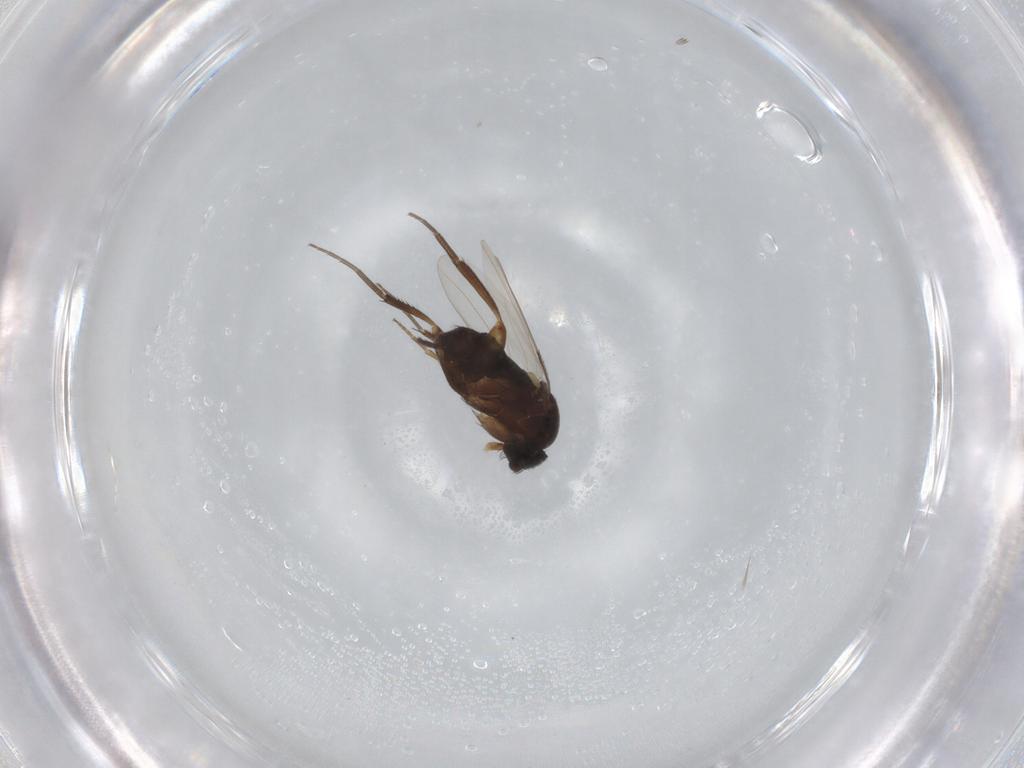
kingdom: Animalia
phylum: Arthropoda
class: Insecta
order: Diptera
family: Phoridae
